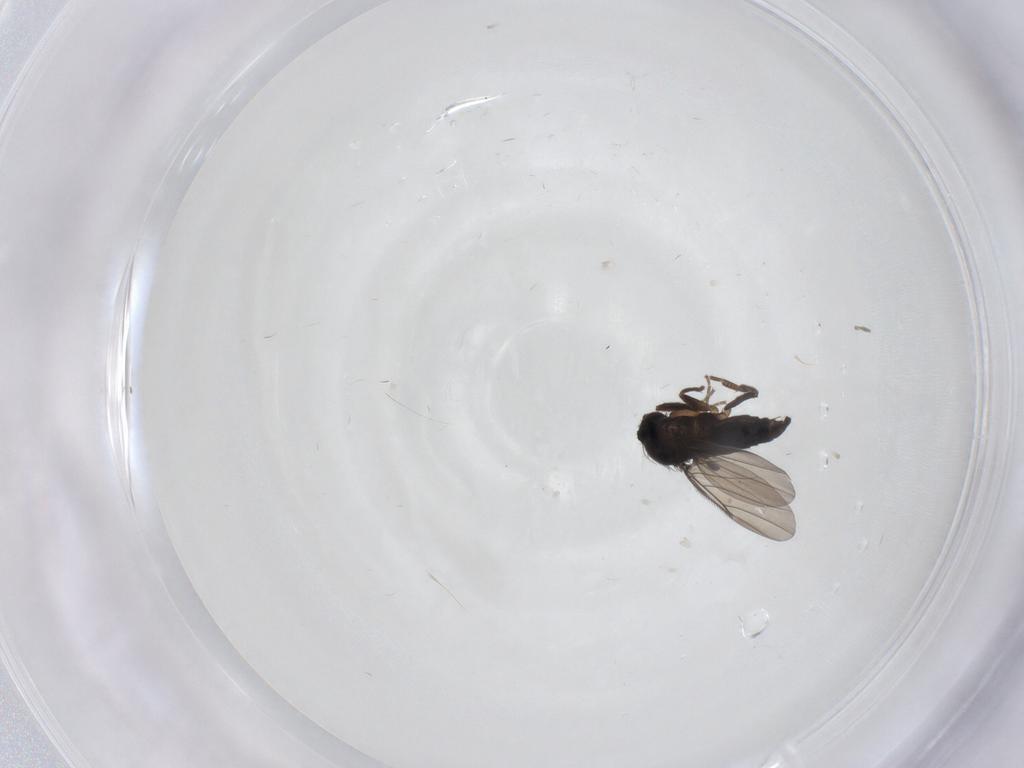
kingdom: Animalia
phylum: Arthropoda
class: Insecta
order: Diptera
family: Phoridae
